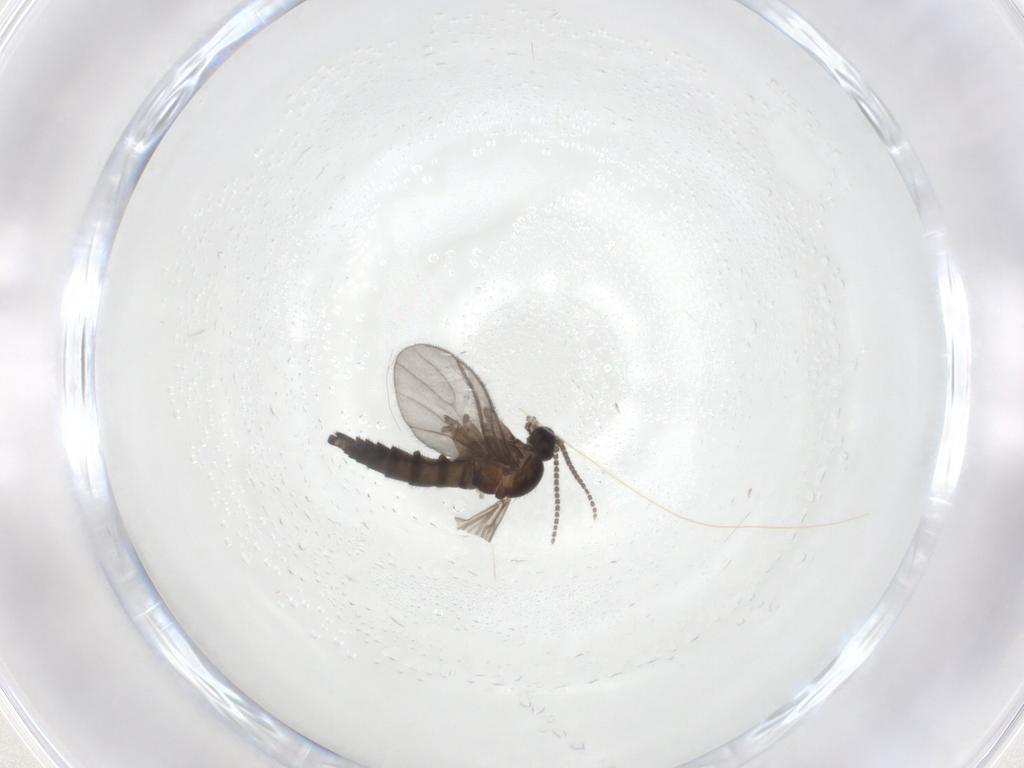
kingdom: Animalia
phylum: Arthropoda
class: Insecta
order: Diptera
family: Sciaridae
